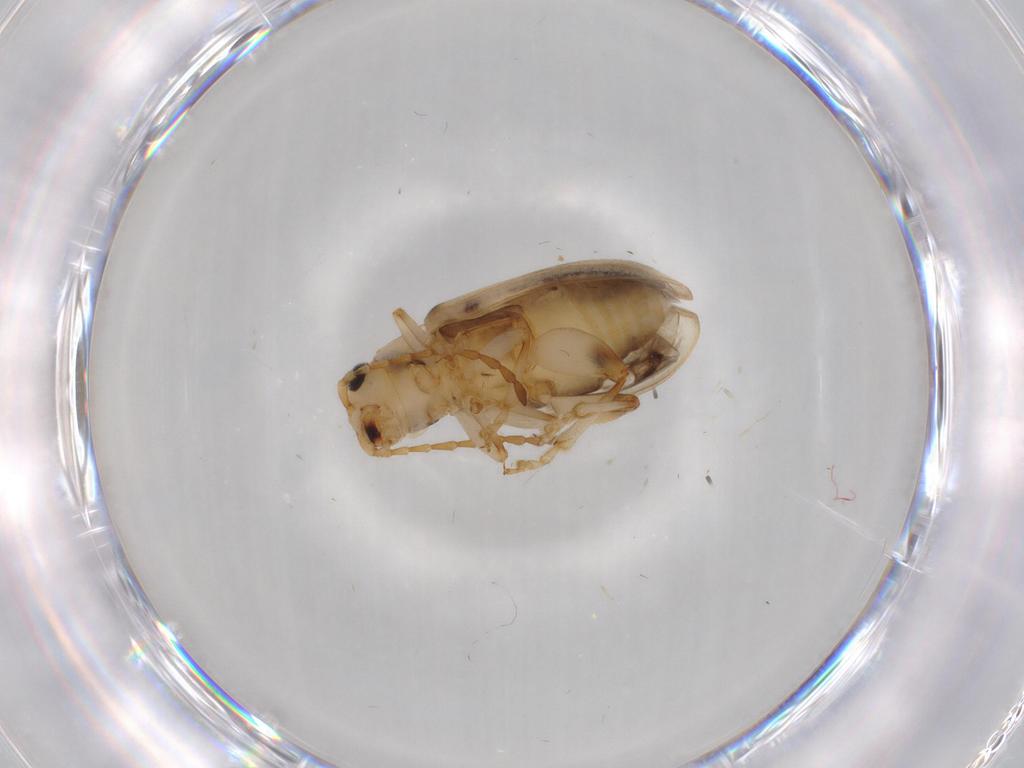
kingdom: Animalia
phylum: Arthropoda
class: Insecta
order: Coleoptera
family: Chrysomelidae
